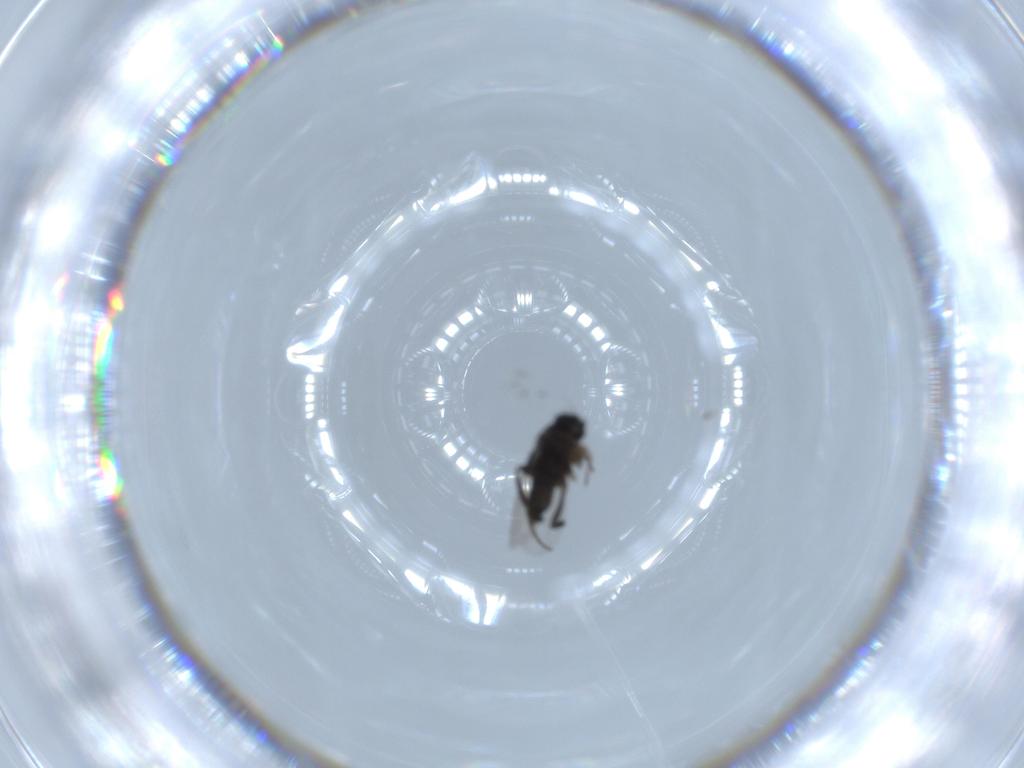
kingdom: Animalia
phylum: Arthropoda
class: Insecta
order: Diptera
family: Phoridae
